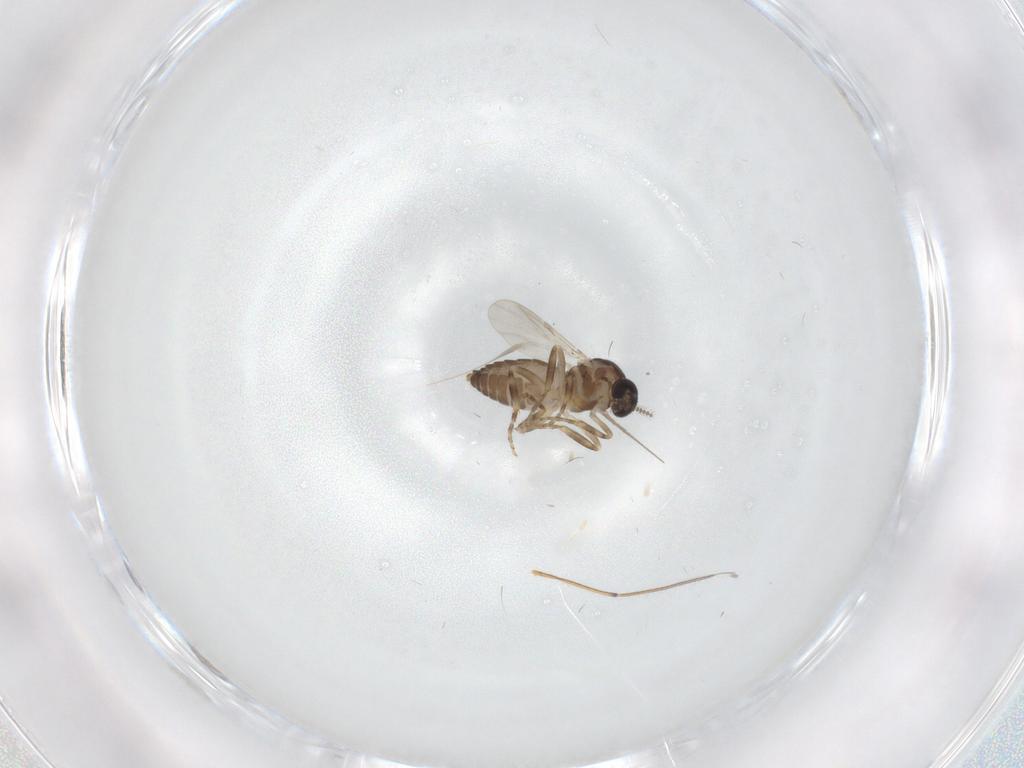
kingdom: Animalia
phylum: Arthropoda
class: Insecta
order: Diptera
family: Ceratopogonidae
